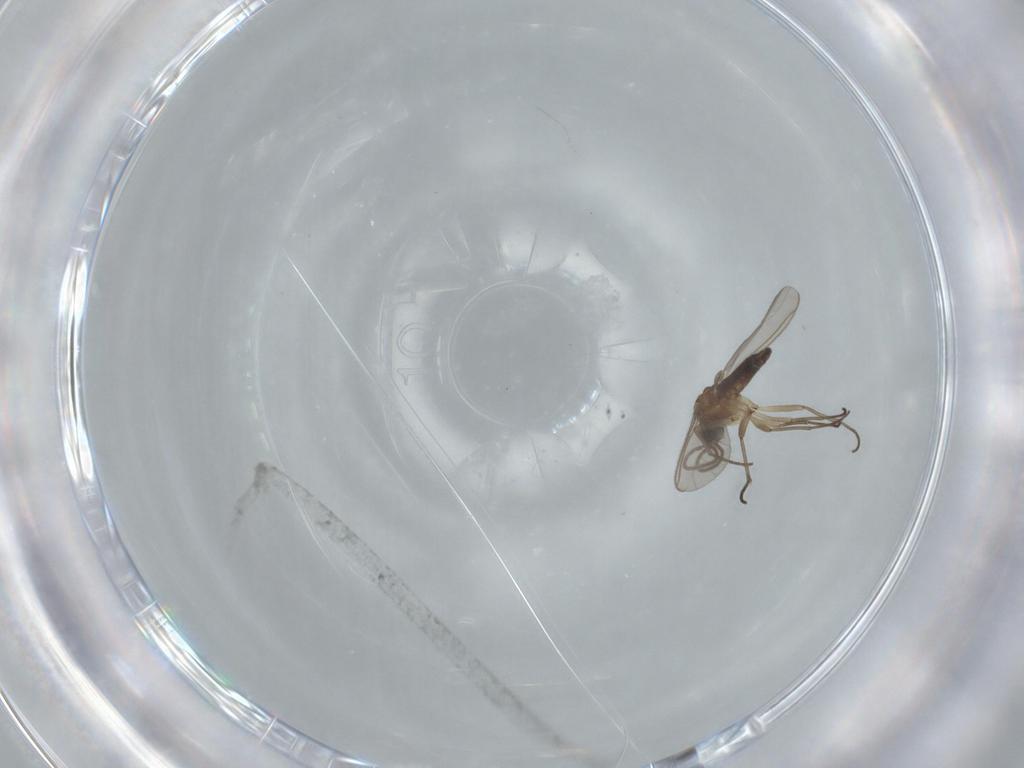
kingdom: Animalia
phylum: Arthropoda
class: Insecta
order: Diptera
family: Sciaridae
